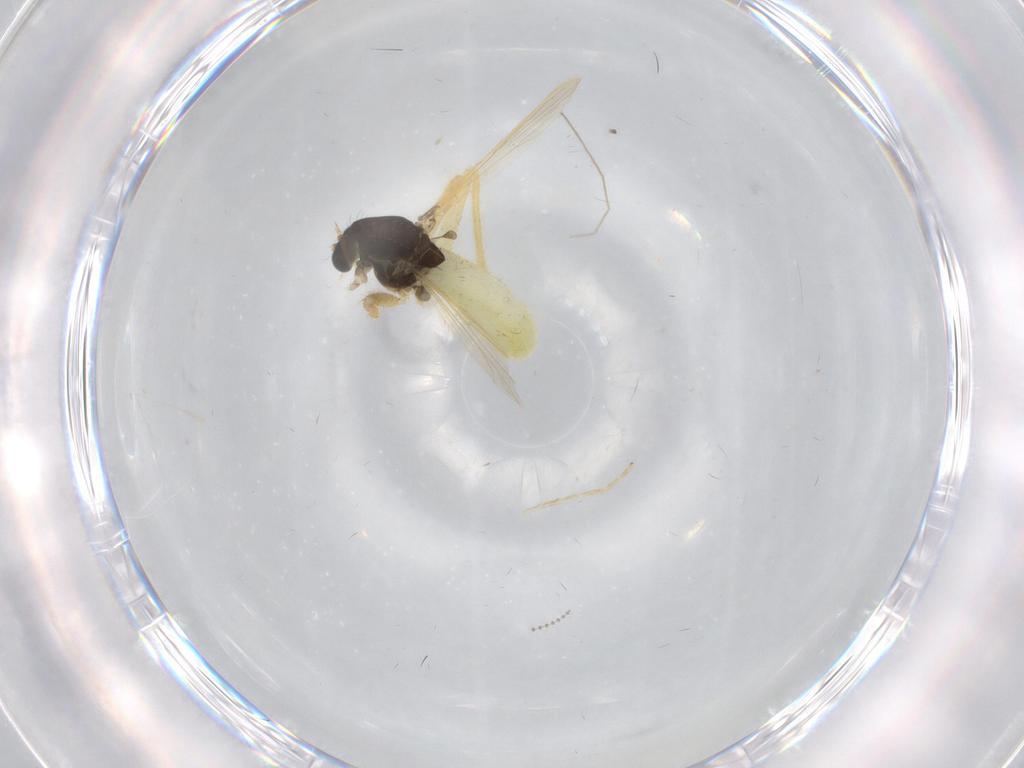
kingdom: Animalia
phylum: Arthropoda
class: Insecta
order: Diptera
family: Chironomidae
